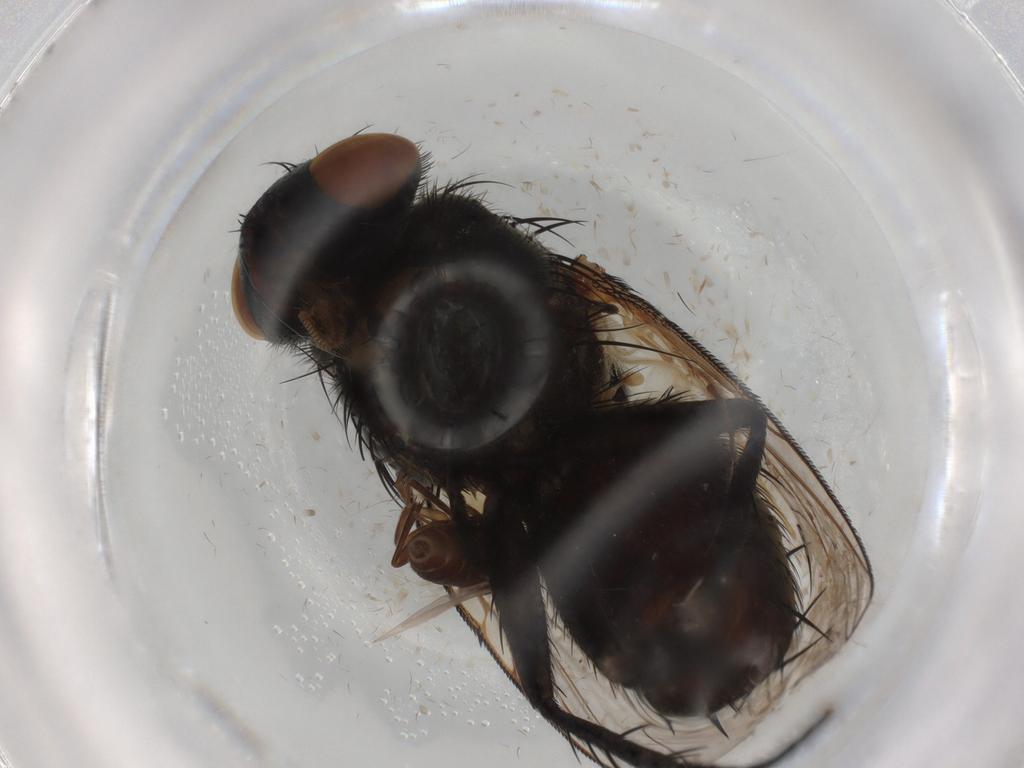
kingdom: Animalia
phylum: Arthropoda
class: Insecta
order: Diptera
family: Sphaeroceridae
